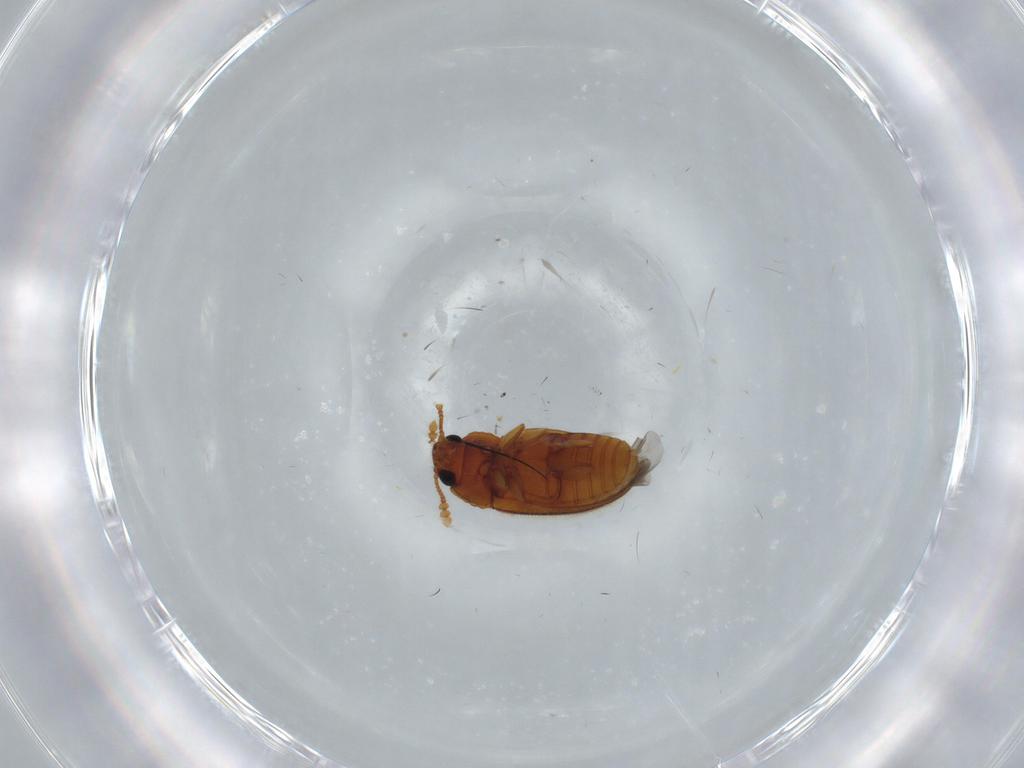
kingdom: Animalia
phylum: Arthropoda
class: Insecta
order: Coleoptera
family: Erotylidae
